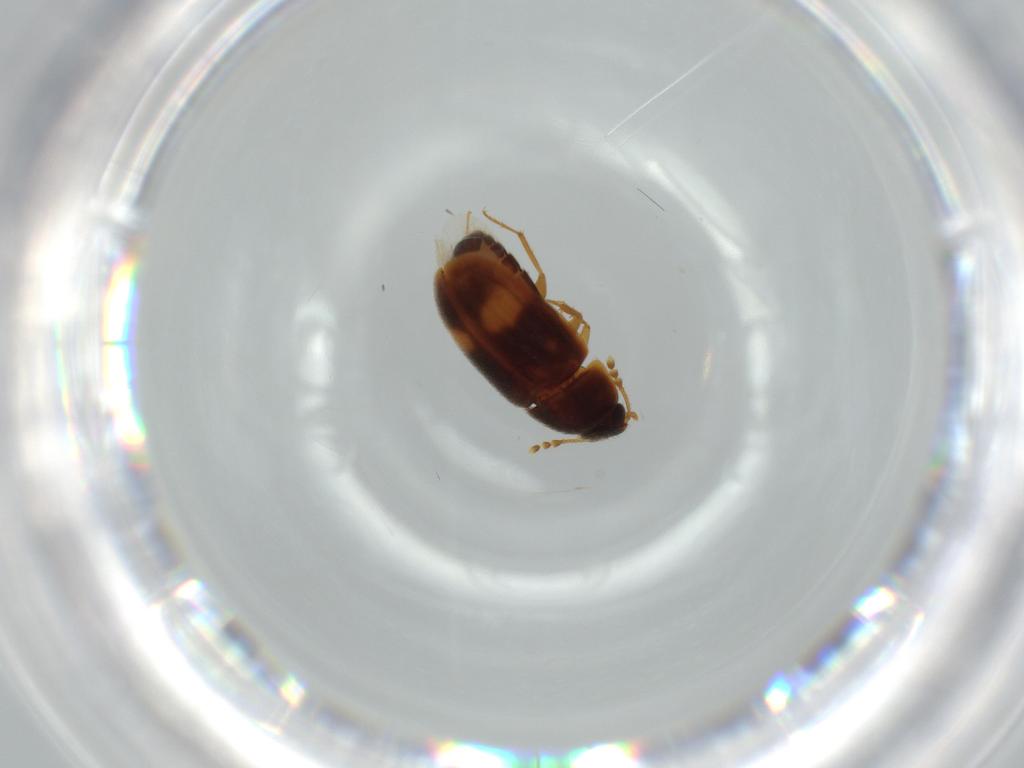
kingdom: Animalia
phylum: Arthropoda
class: Insecta
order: Coleoptera
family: Mycetophagidae
